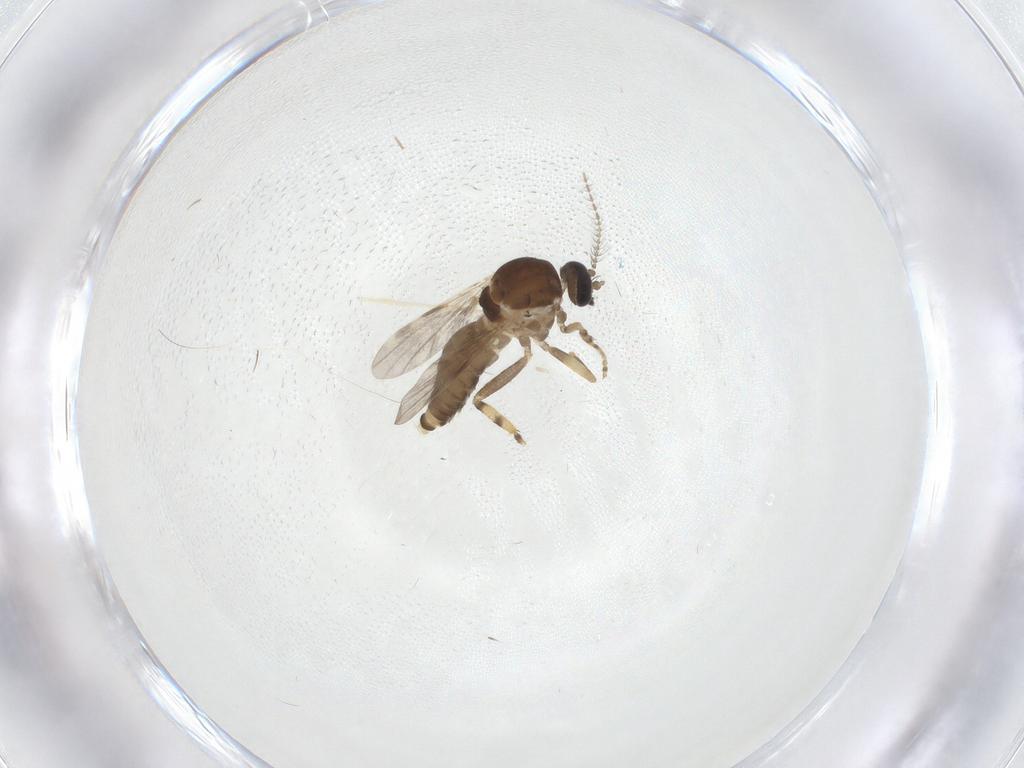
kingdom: Animalia
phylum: Arthropoda
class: Insecta
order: Diptera
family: Ceratopogonidae
